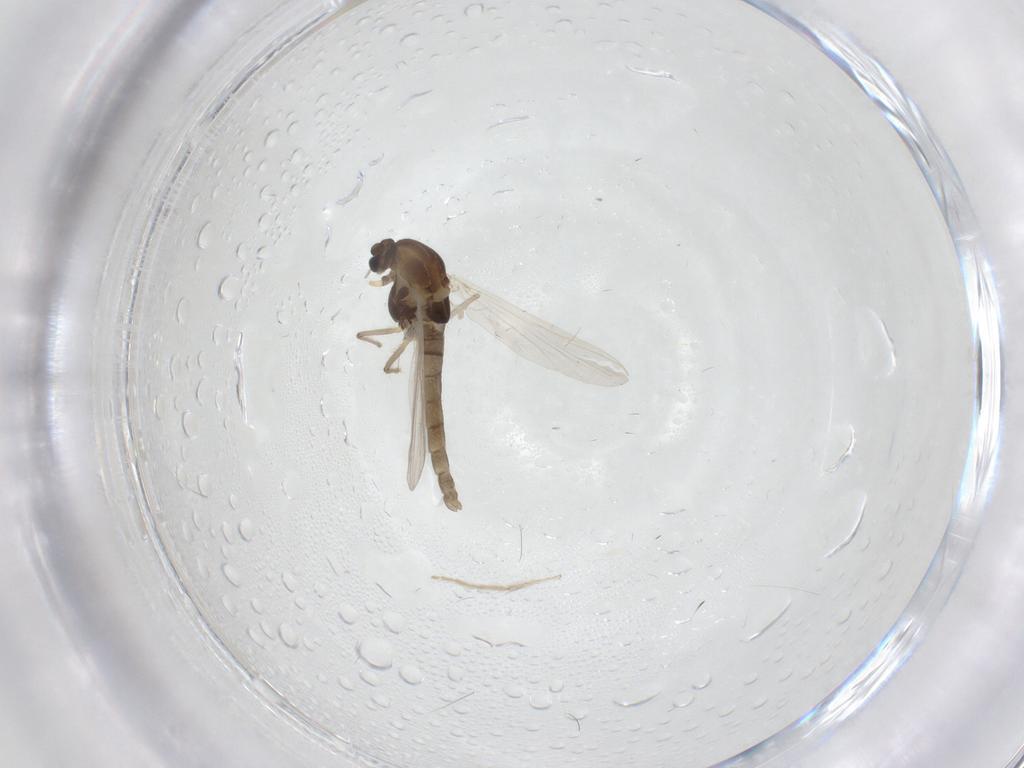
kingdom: Animalia
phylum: Arthropoda
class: Insecta
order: Diptera
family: Chironomidae
